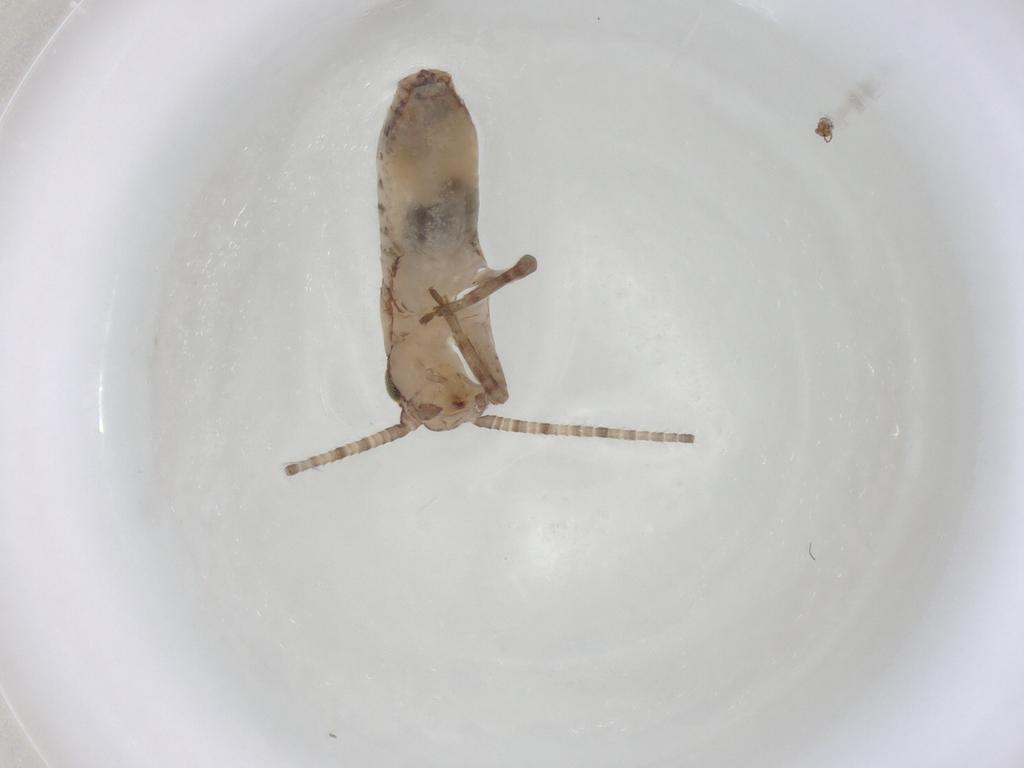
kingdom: Animalia
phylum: Arthropoda
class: Insecta
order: Orthoptera
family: Mogoplistidae
